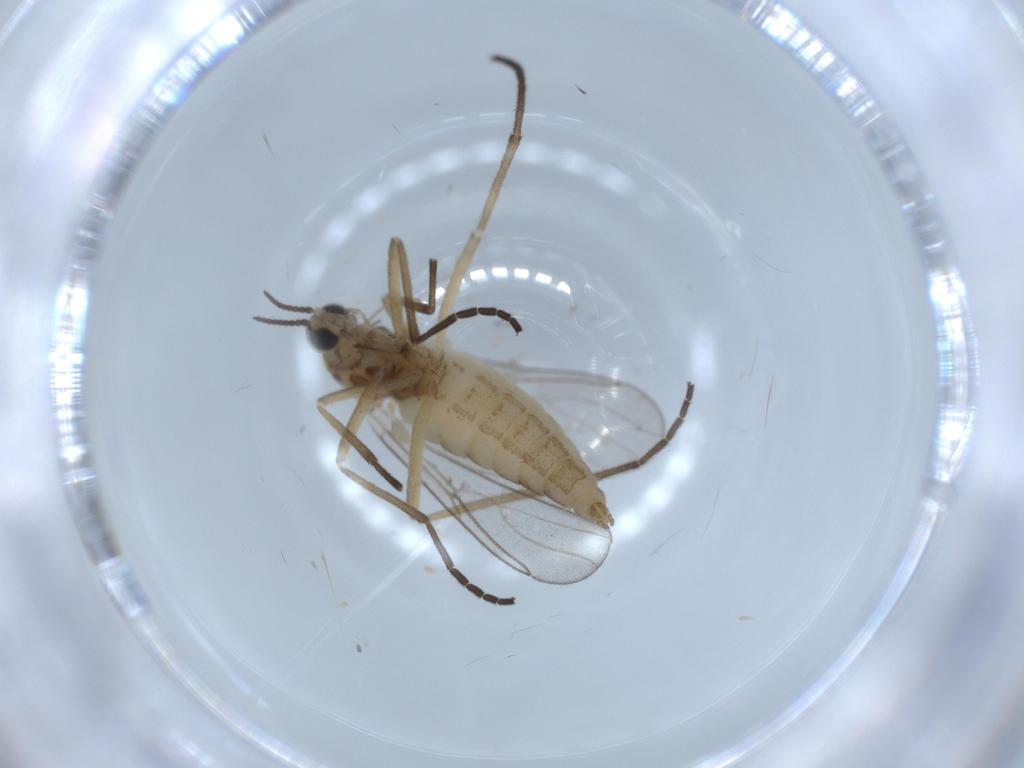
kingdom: Animalia
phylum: Arthropoda
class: Insecta
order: Diptera
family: Cecidomyiidae
